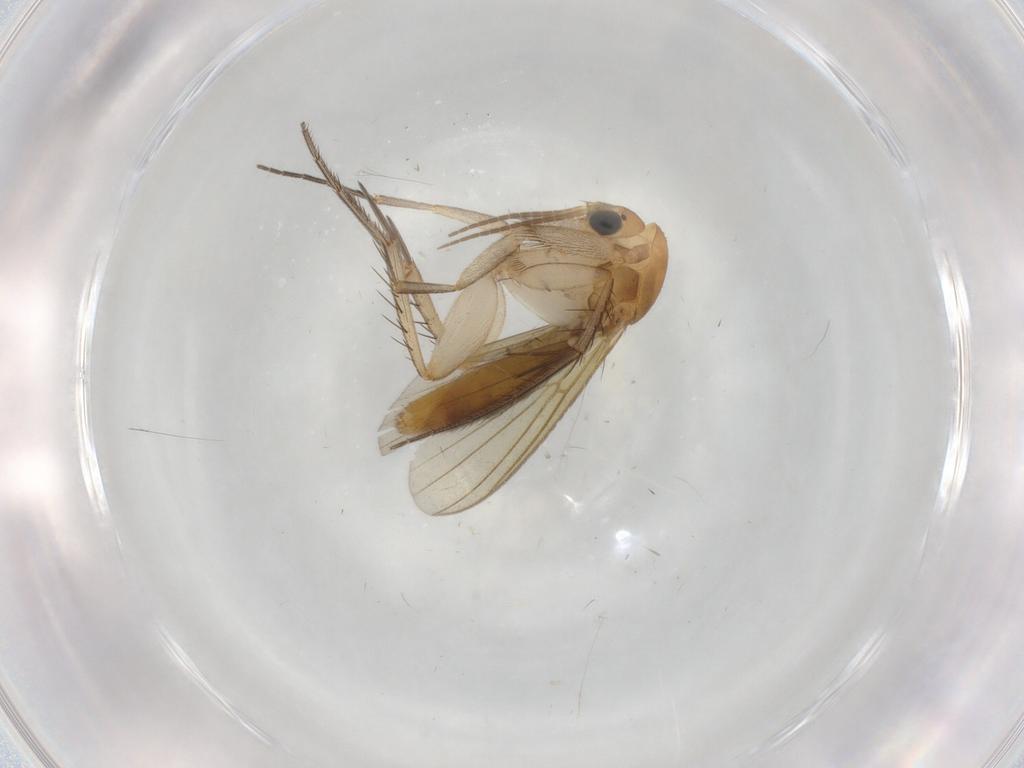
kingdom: Animalia
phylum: Arthropoda
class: Insecta
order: Diptera
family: Mycetophilidae
